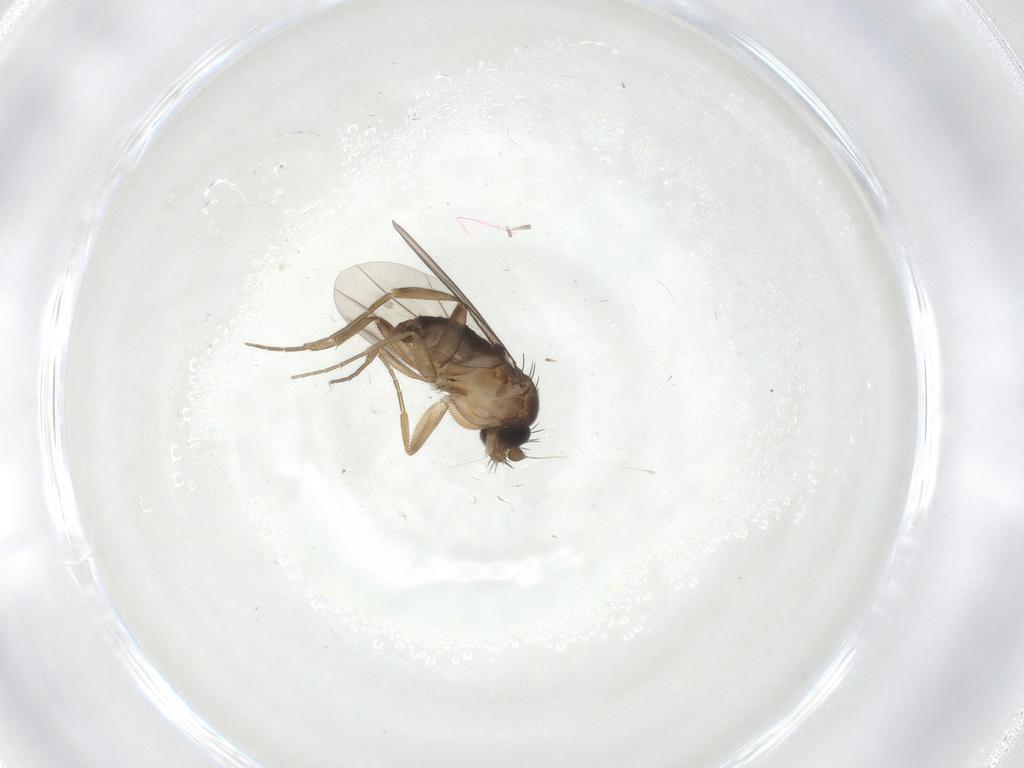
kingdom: Animalia
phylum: Arthropoda
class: Insecta
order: Diptera
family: Phoridae
